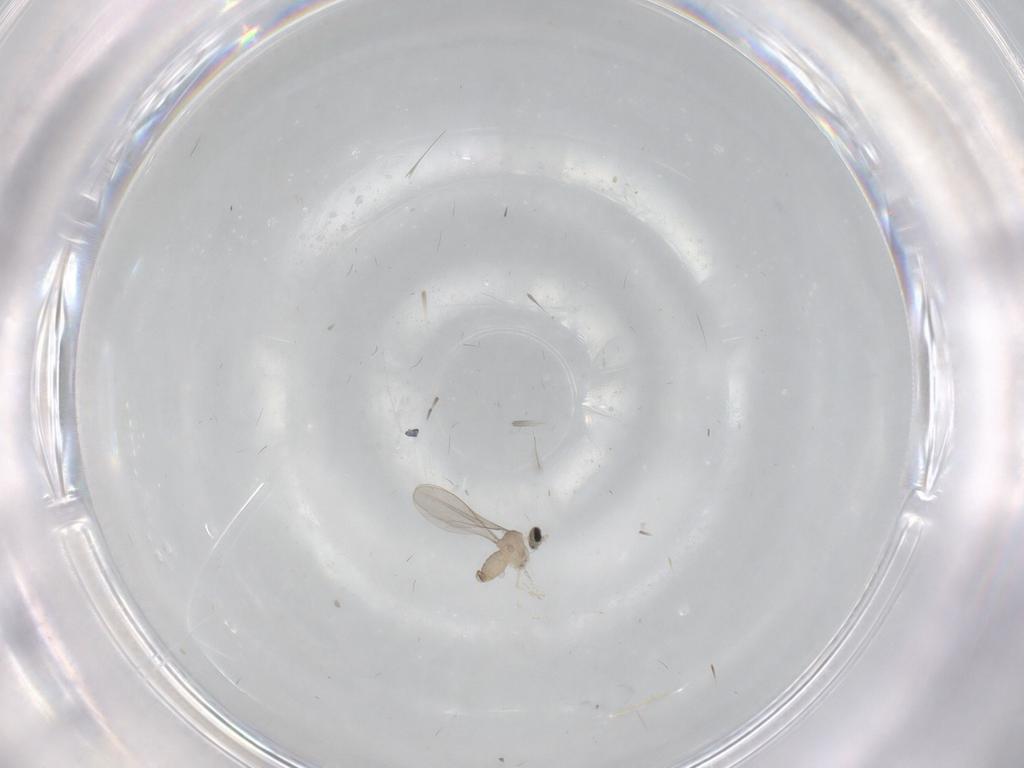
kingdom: Animalia
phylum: Arthropoda
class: Insecta
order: Diptera
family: Cecidomyiidae
